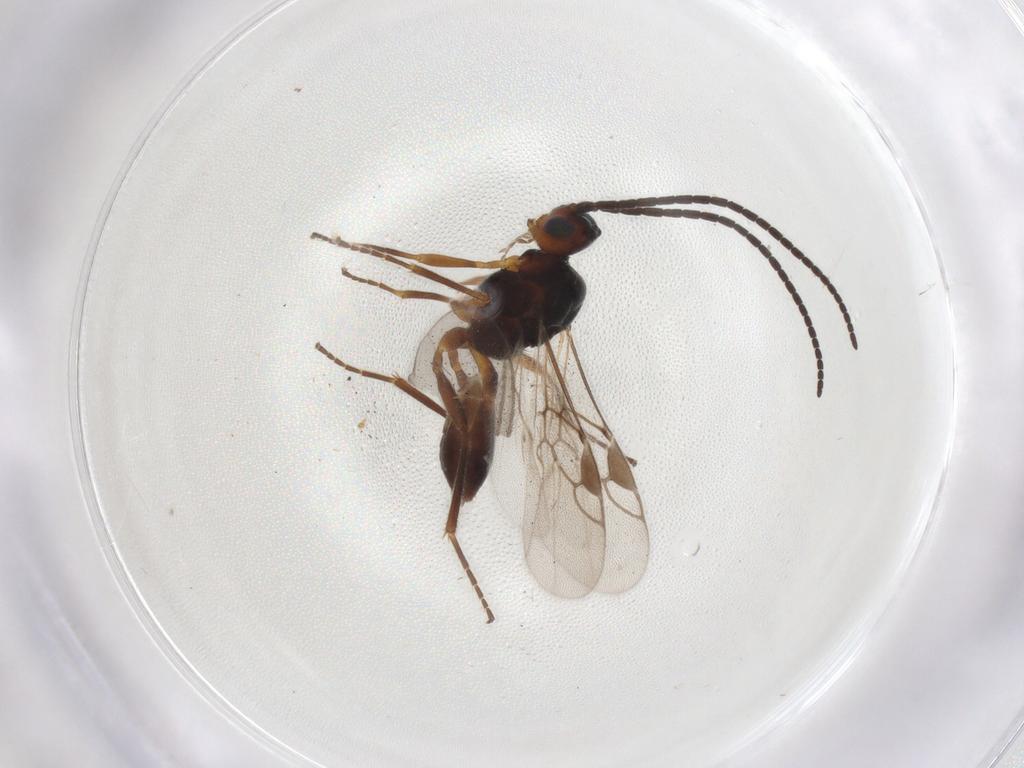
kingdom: Animalia
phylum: Arthropoda
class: Insecta
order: Hymenoptera
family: Braconidae
